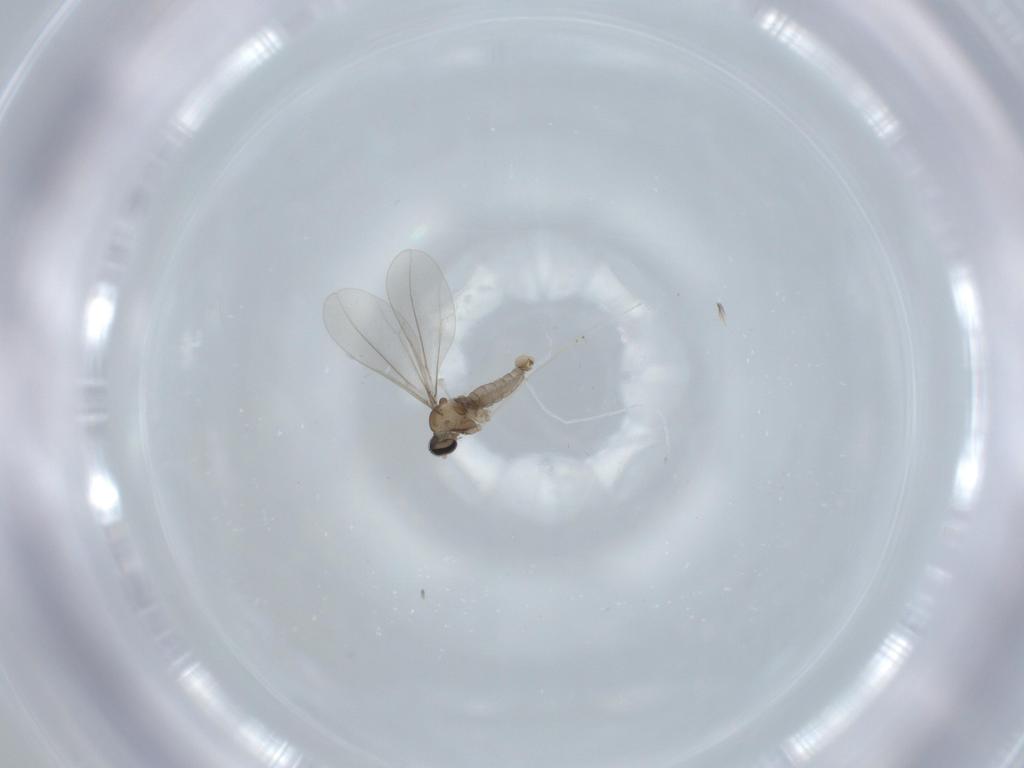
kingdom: Animalia
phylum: Arthropoda
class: Insecta
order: Diptera
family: Cecidomyiidae
